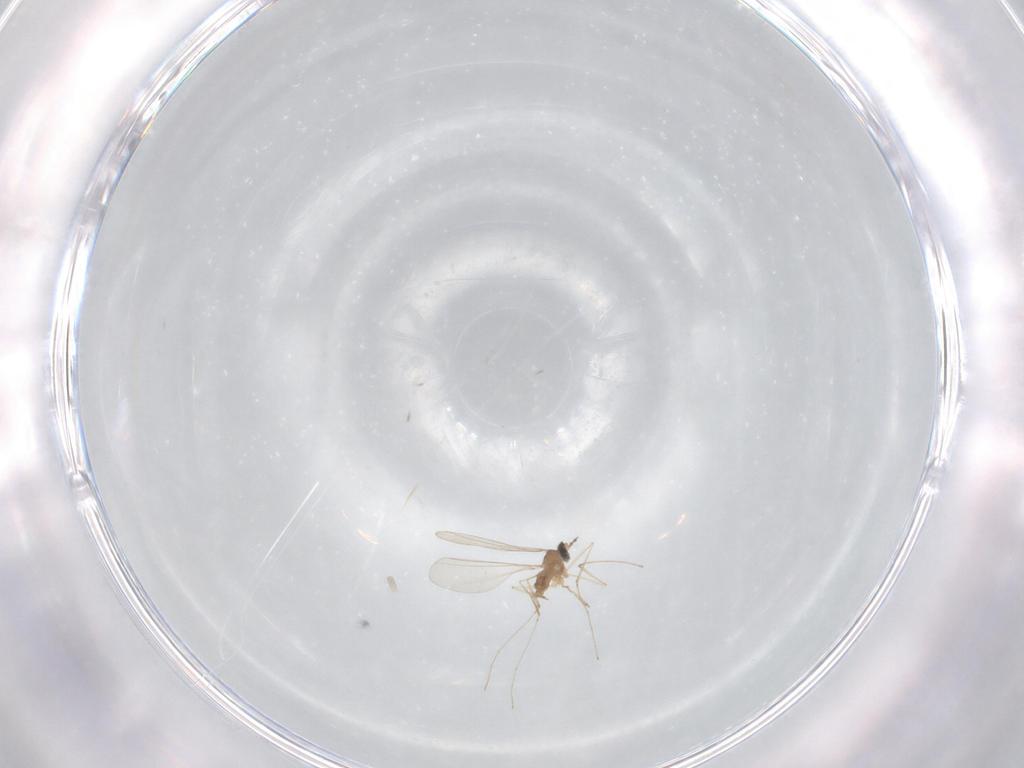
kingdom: Animalia
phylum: Arthropoda
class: Insecta
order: Diptera
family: Cecidomyiidae
